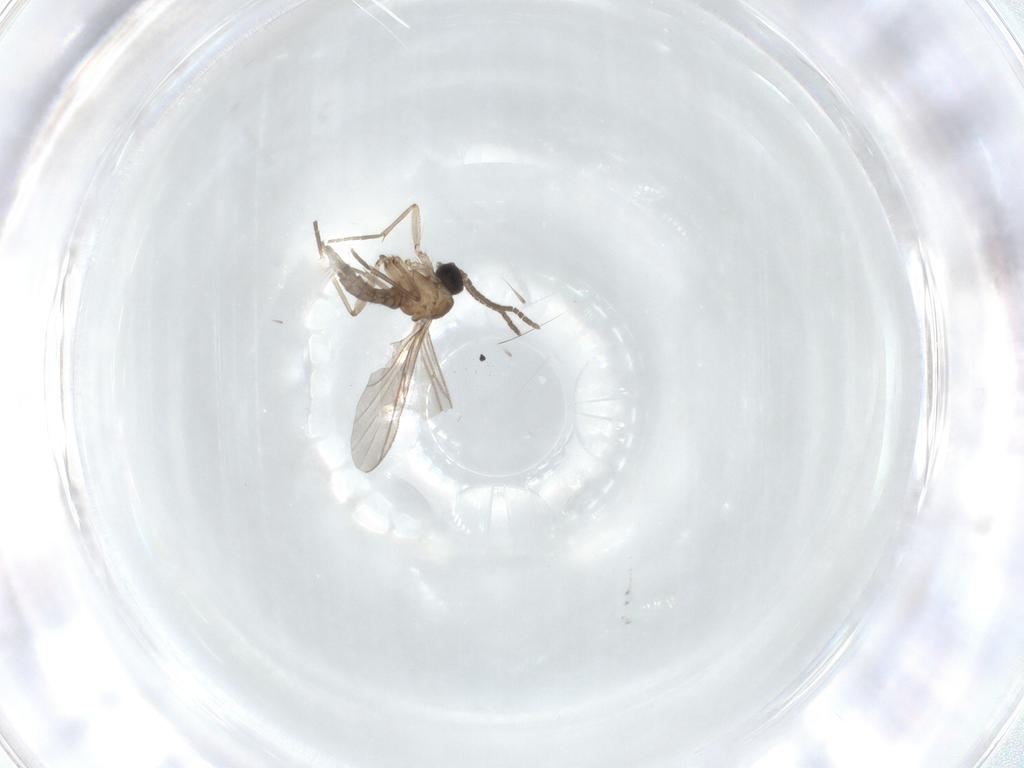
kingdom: Animalia
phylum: Arthropoda
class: Insecta
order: Diptera
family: Sciaridae
